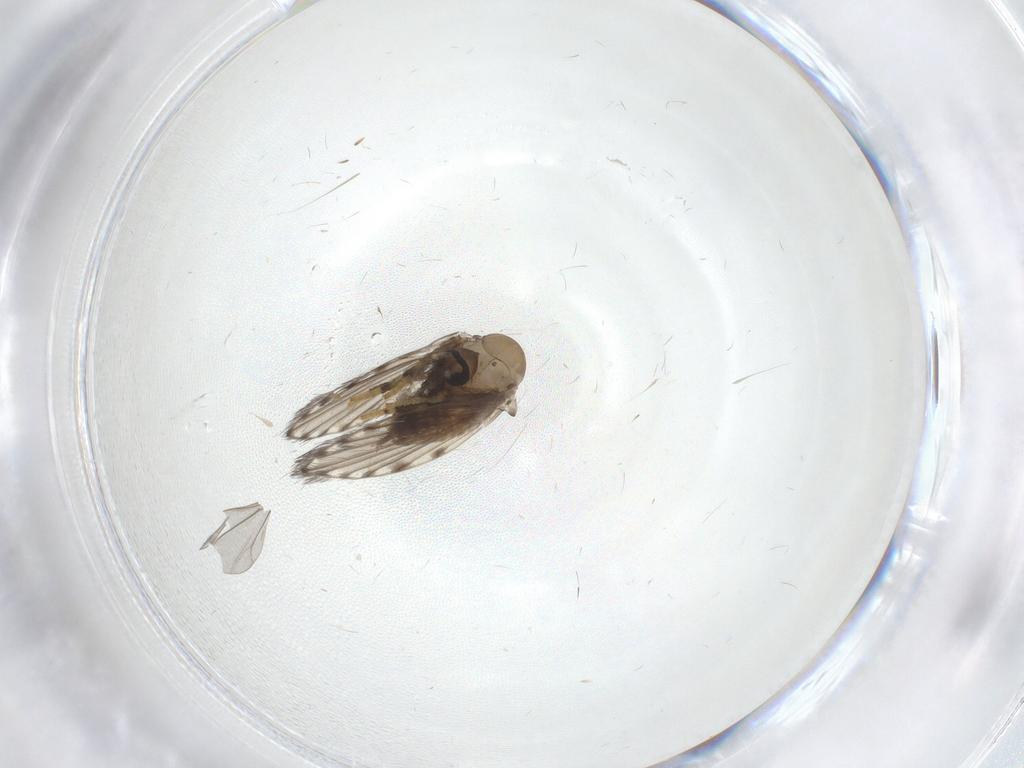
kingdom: Animalia
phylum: Arthropoda
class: Insecta
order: Diptera
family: Psychodidae
